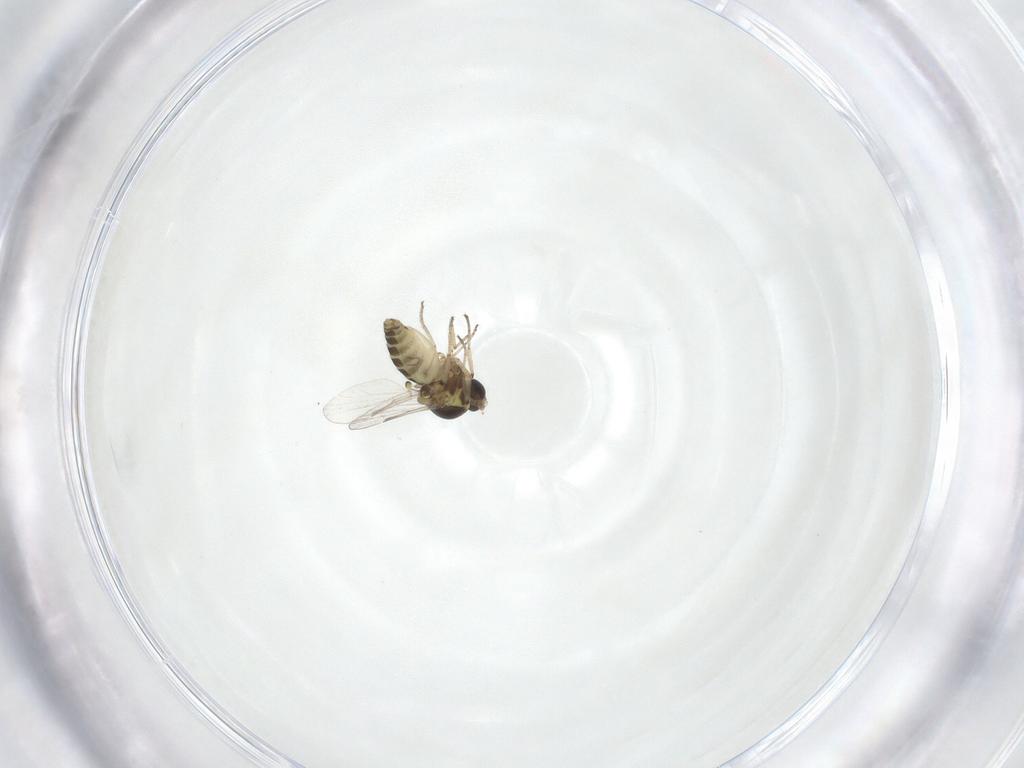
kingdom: Animalia
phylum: Arthropoda
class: Insecta
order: Diptera
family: Ceratopogonidae
